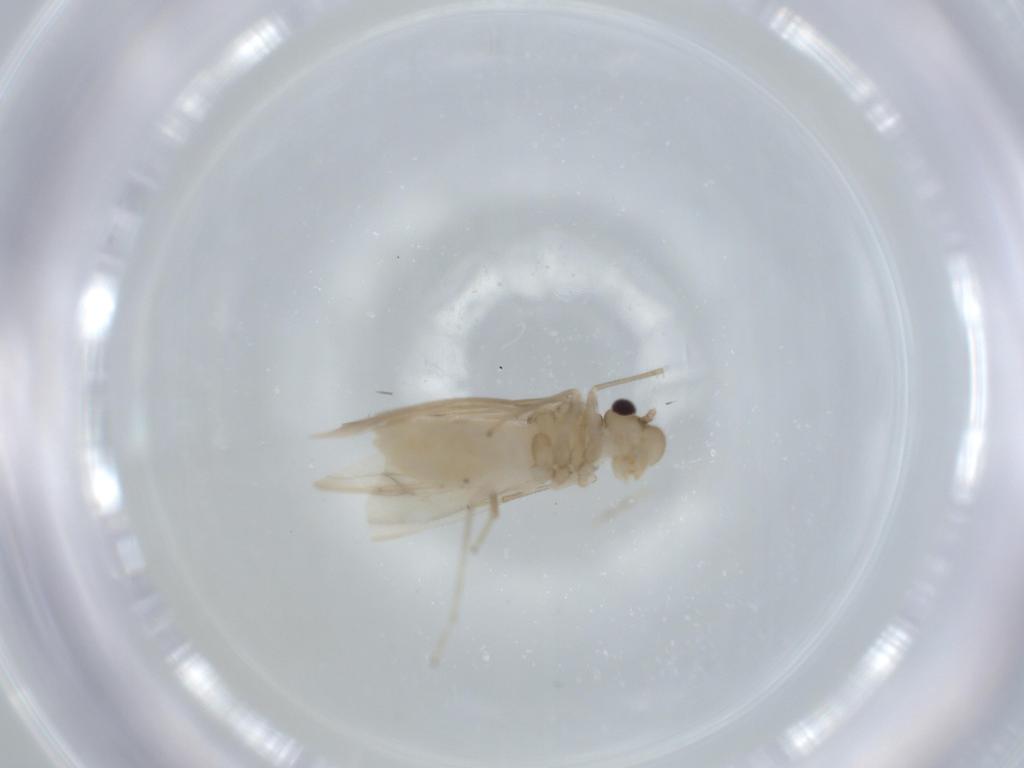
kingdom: Animalia
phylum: Arthropoda
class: Insecta
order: Psocodea
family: Caeciliusidae
